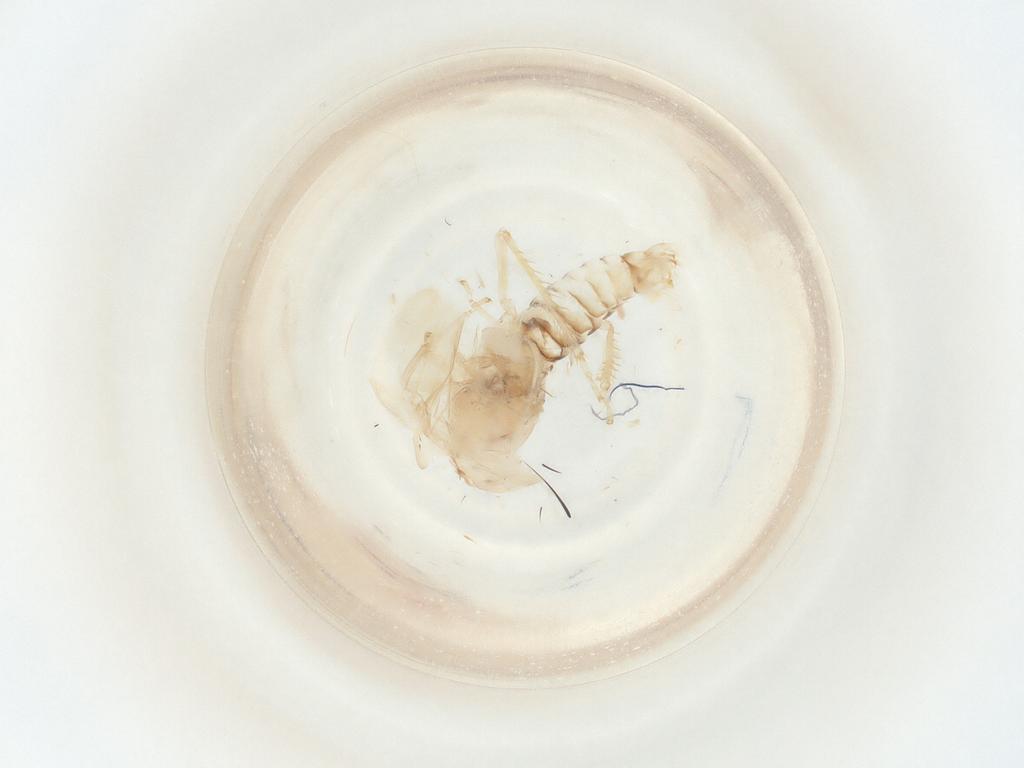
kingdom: Animalia
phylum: Arthropoda
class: Insecta
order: Hemiptera
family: Cicadellidae
